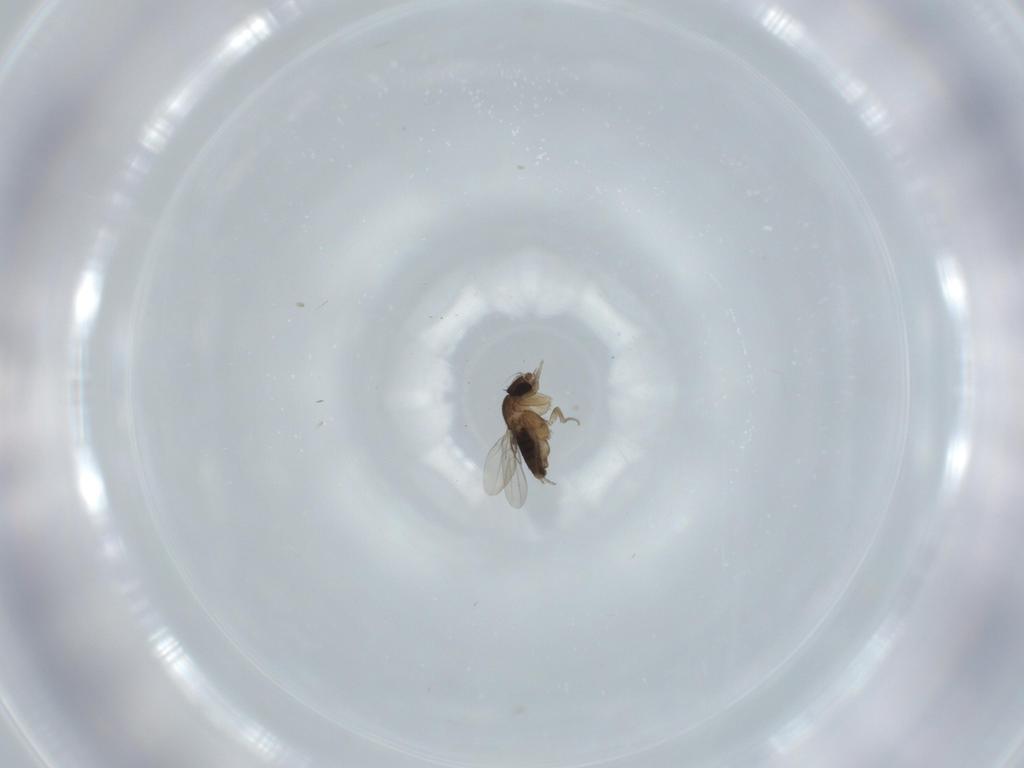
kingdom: Animalia
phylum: Arthropoda
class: Insecta
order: Diptera
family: Phoridae
